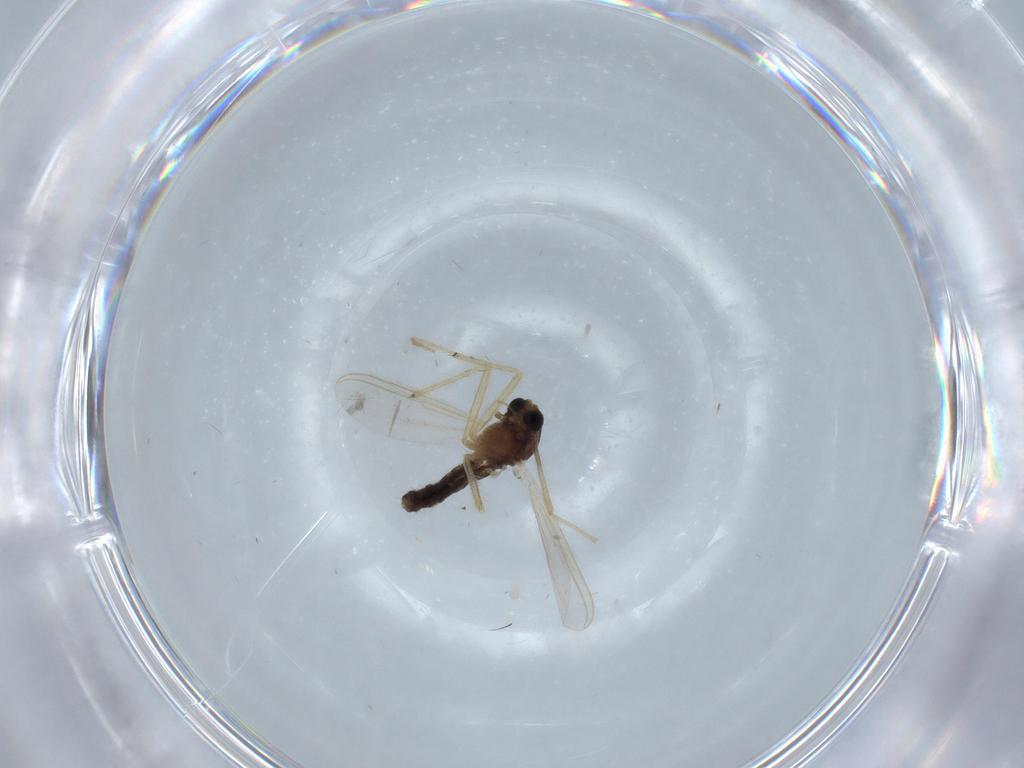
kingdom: Animalia
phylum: Arthropoda
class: Insecta
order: Diptera
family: Chironomidae
